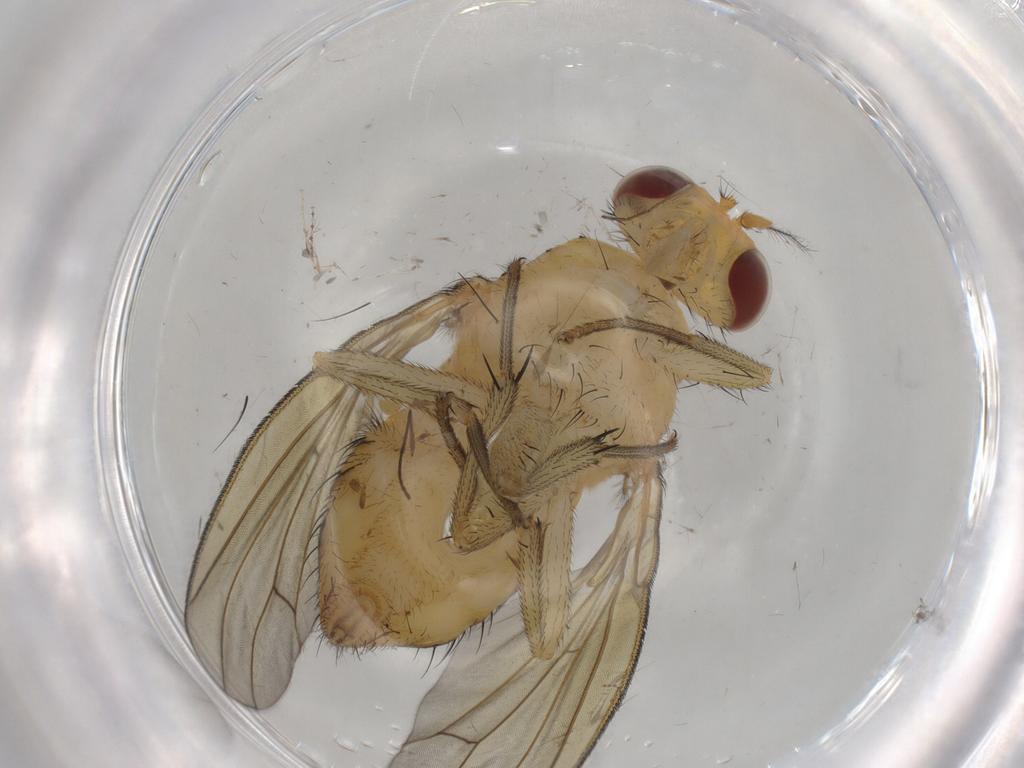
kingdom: Animalia
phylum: Arthropoda
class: Insecta
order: Diptera
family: Cecidomyiidae
